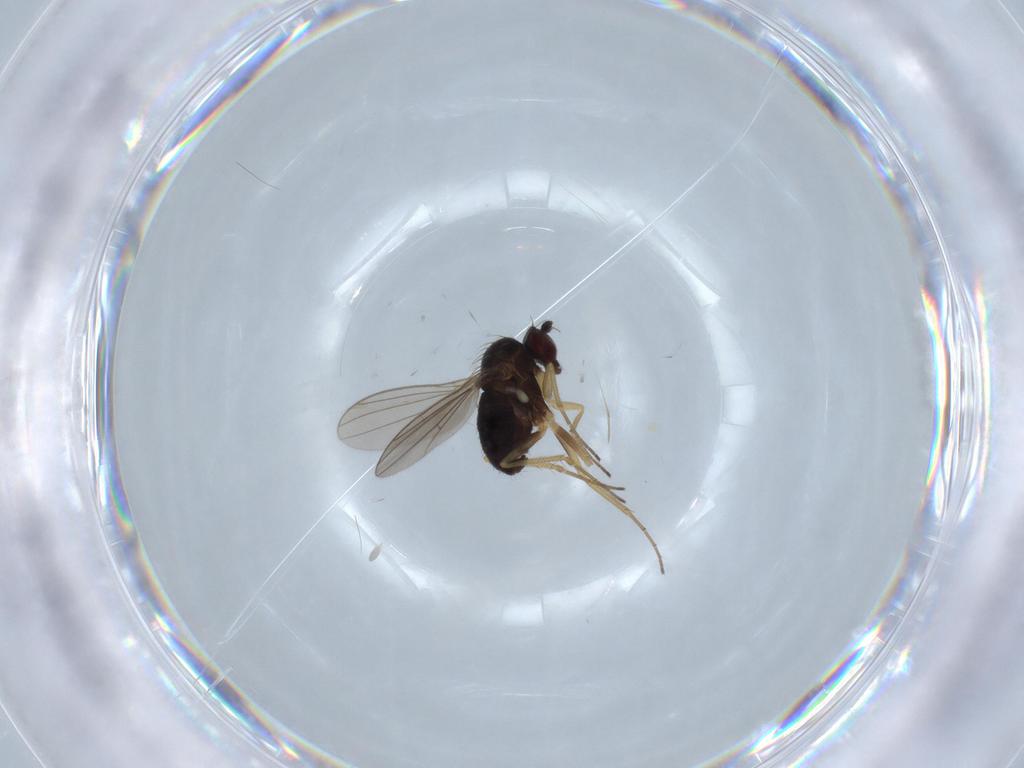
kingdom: Animalia
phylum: Arthropoda
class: Insecta
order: Diptera
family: Dolichopodidae
